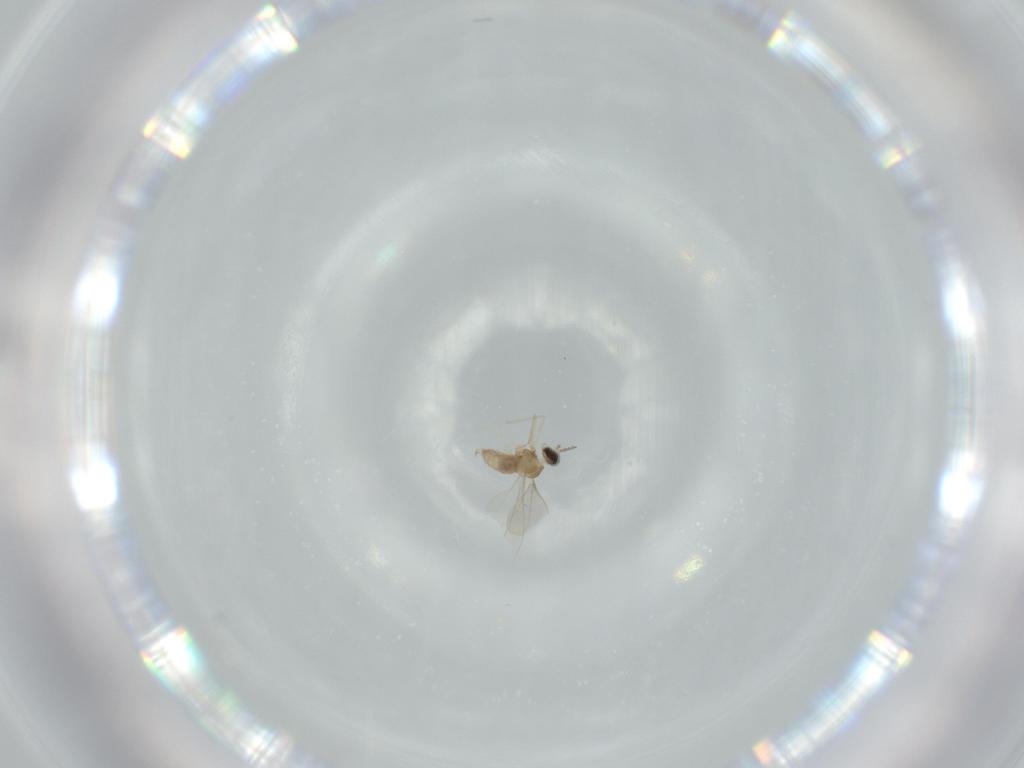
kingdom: Animalia
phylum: Arthropoda
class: Insecta
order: Diptera
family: Cecidomyiidae
